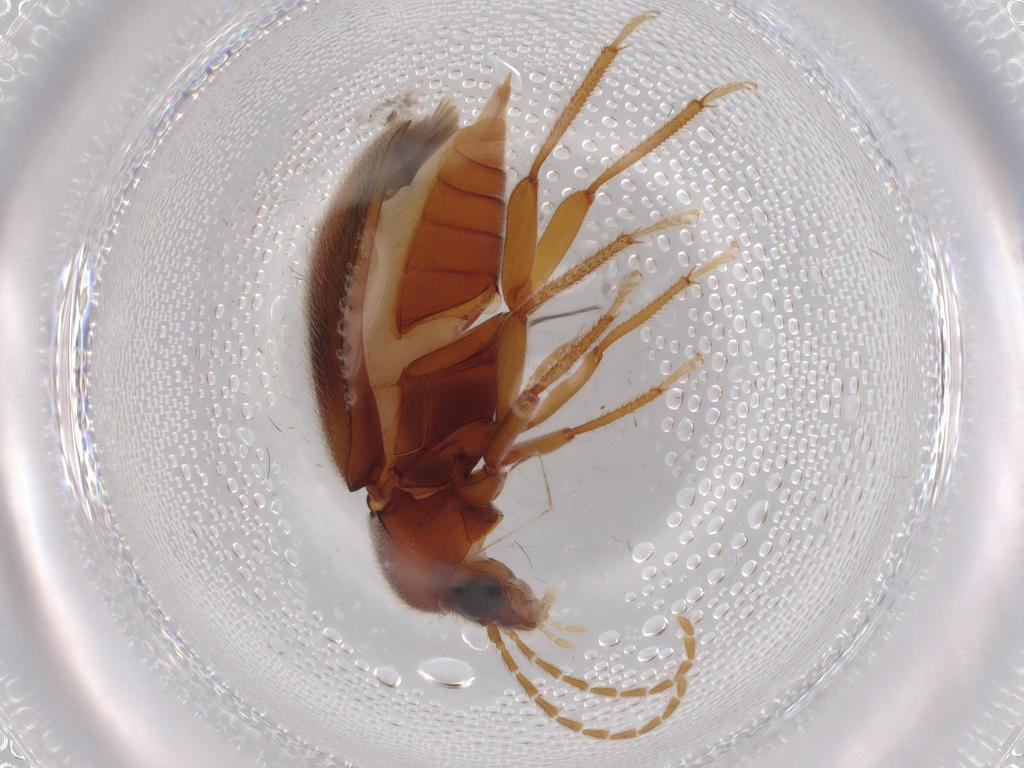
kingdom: Animalia
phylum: Arthropoda
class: Insecta
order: Coleoptera
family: Ptilodactylidae
